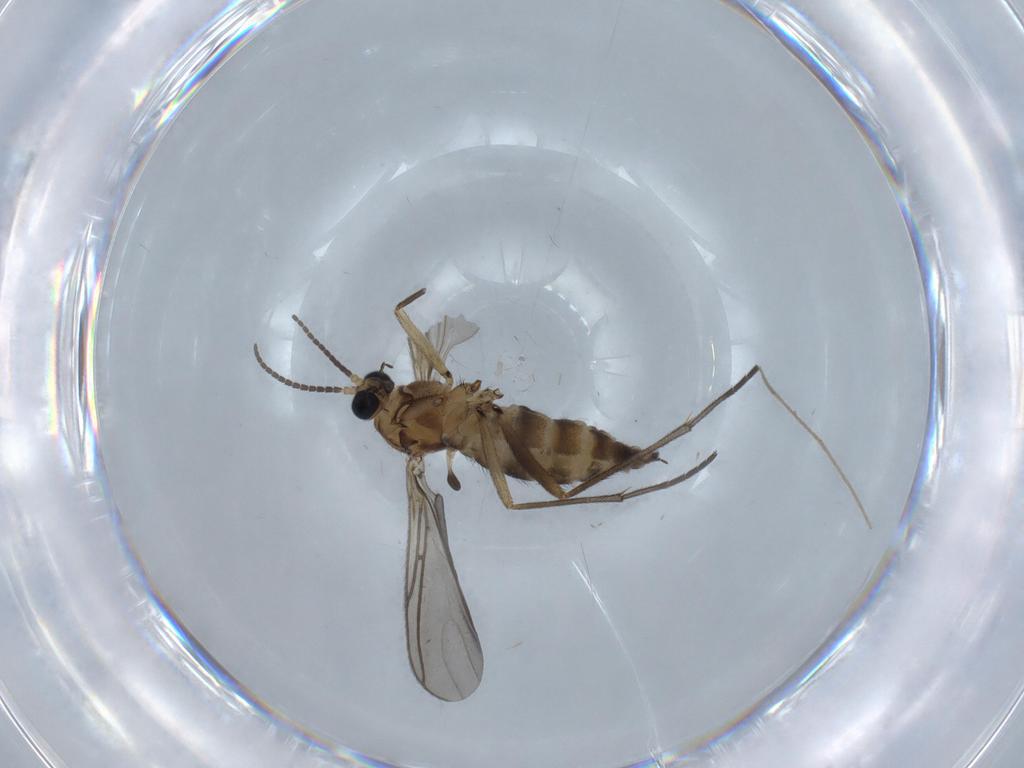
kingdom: Animalia
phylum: Arthropoda
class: Insecta
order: Diptera
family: Sciaridae
